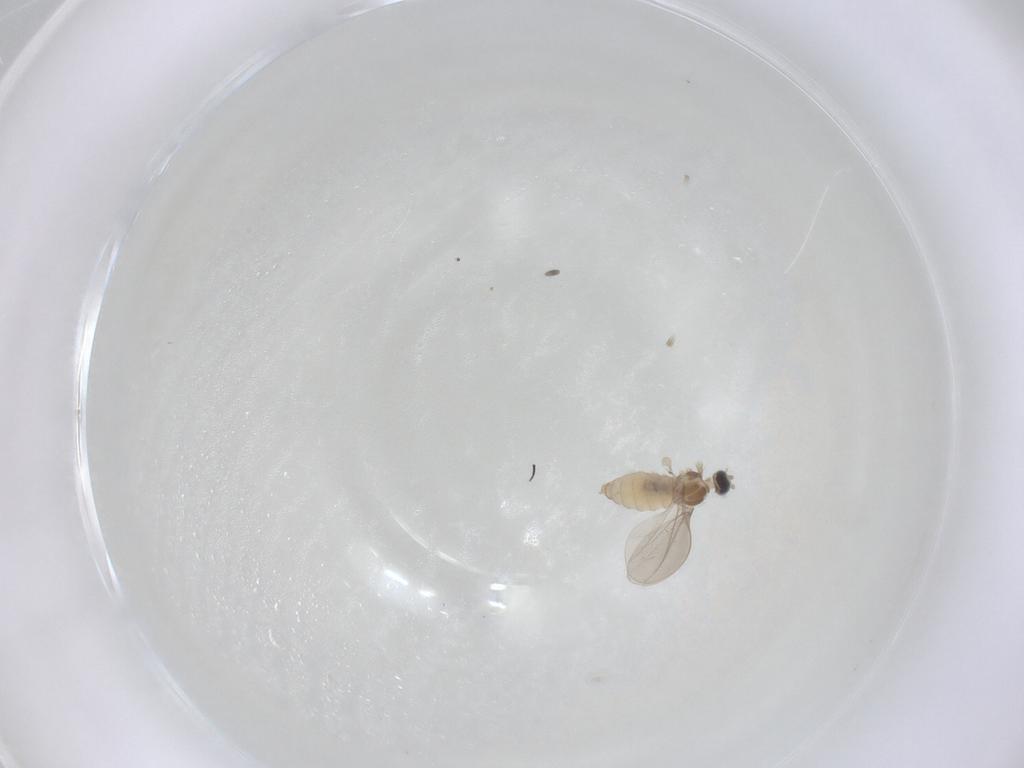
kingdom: Animalia
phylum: Arthropoda
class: Insecta
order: Diptera
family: Cecidomyiidae
